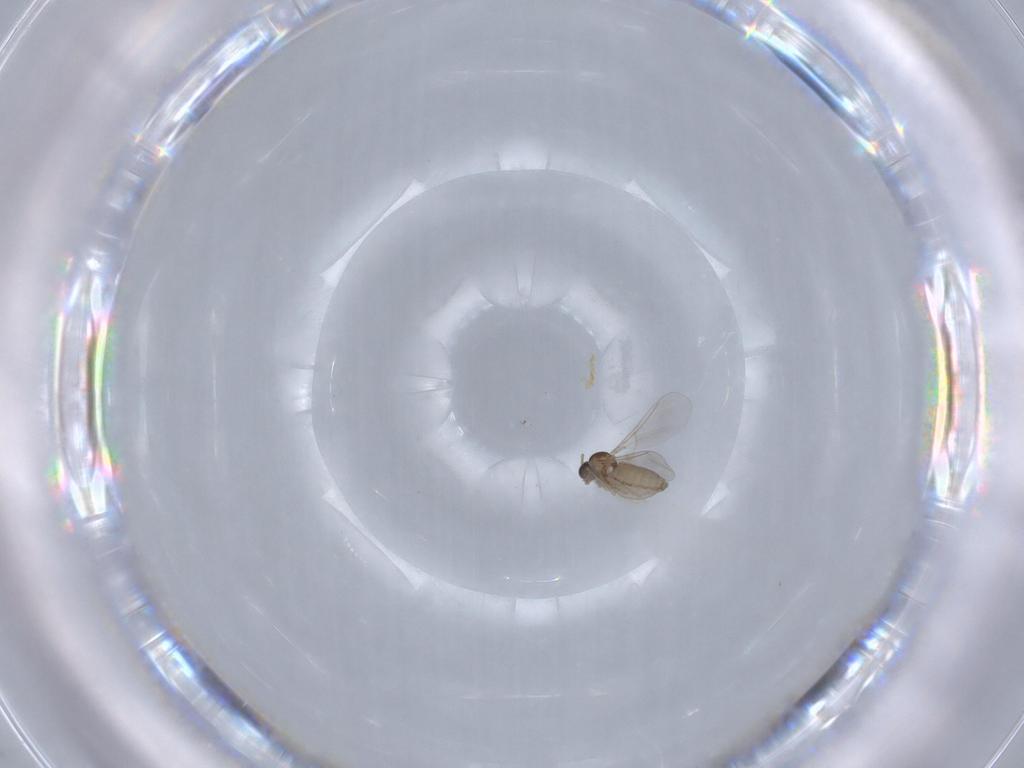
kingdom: Animalia
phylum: Arthropoda
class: Insecta
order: Diptera
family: Cecidomyiidae
